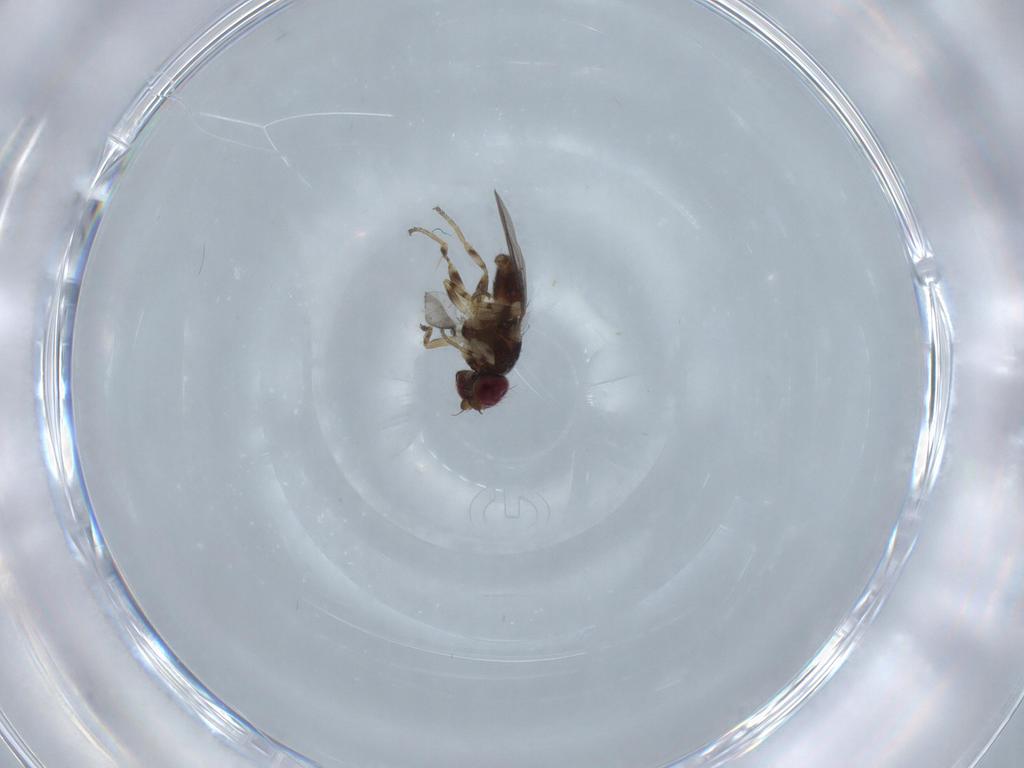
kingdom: Animalia
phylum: Arthropoda
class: Insecta
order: Diptera
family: Chloropidae
